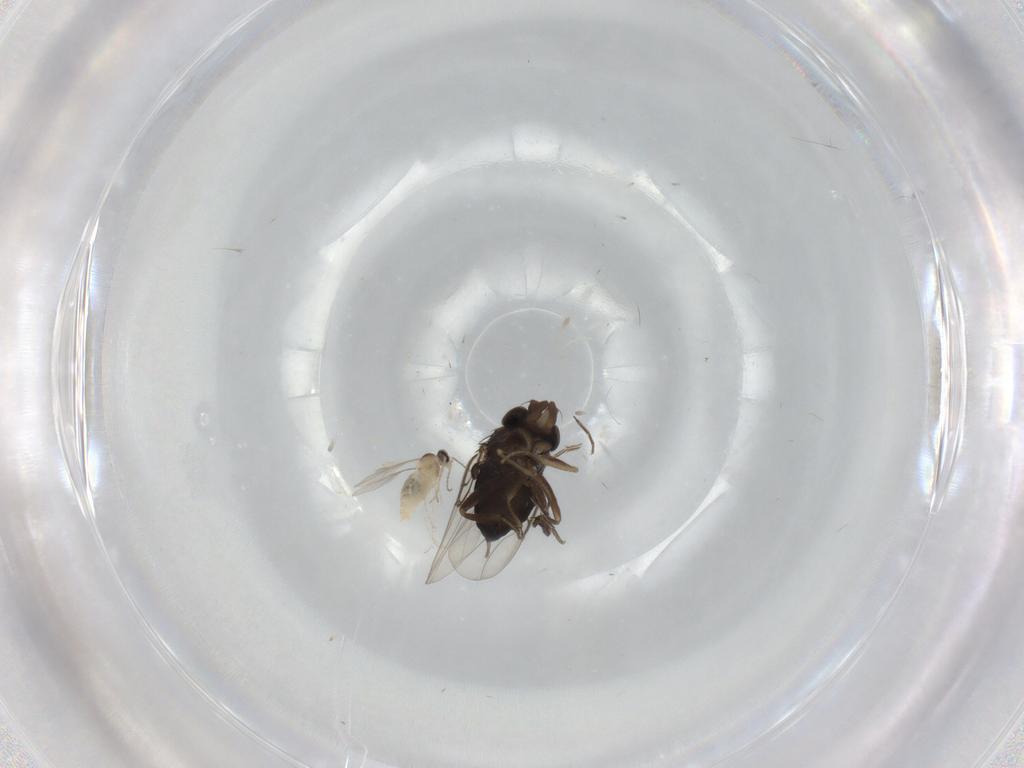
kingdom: Animalia
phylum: Arthropoda
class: Insecta
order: Diptera
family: Phoridae
